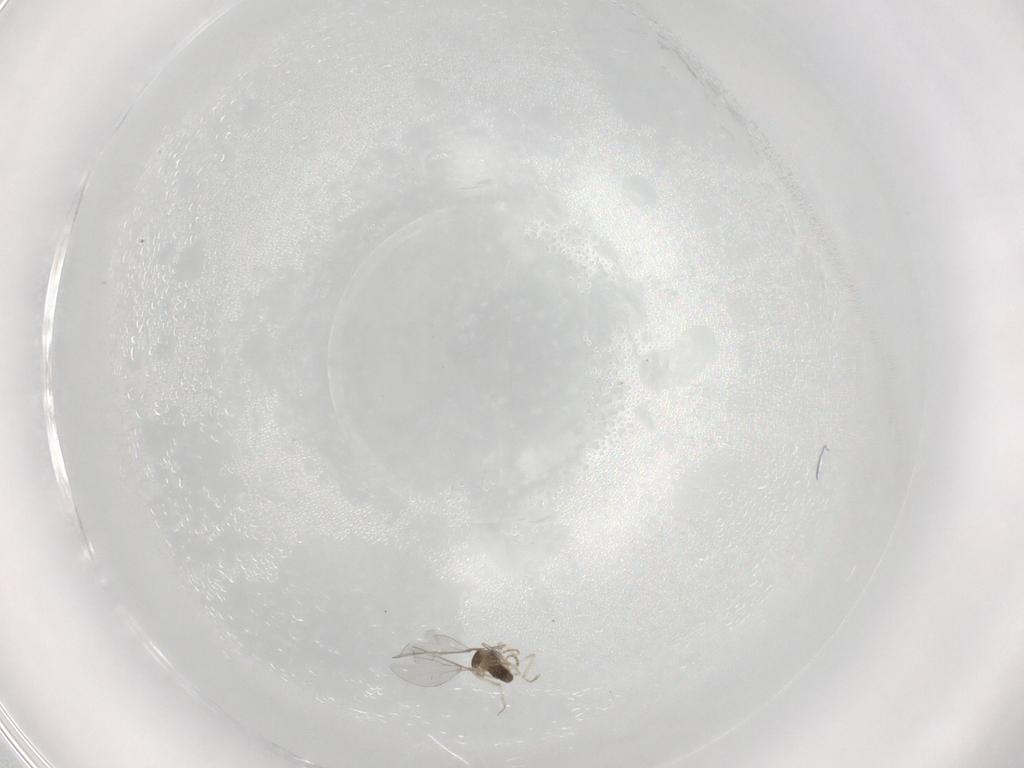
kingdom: Animalia
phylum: Arthropoda
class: Insecta
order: Diptera
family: Cecidomyiidae
